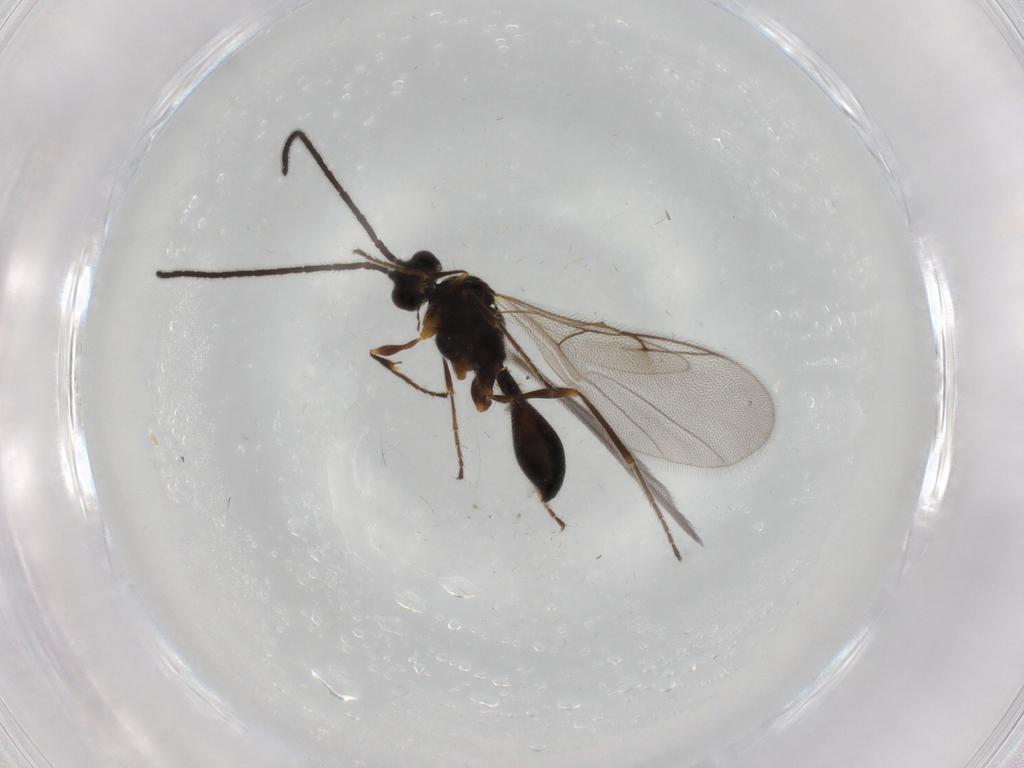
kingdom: Animalia
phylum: Arthropoda
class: Insecta
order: Hymenoptera
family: Diapriidae
